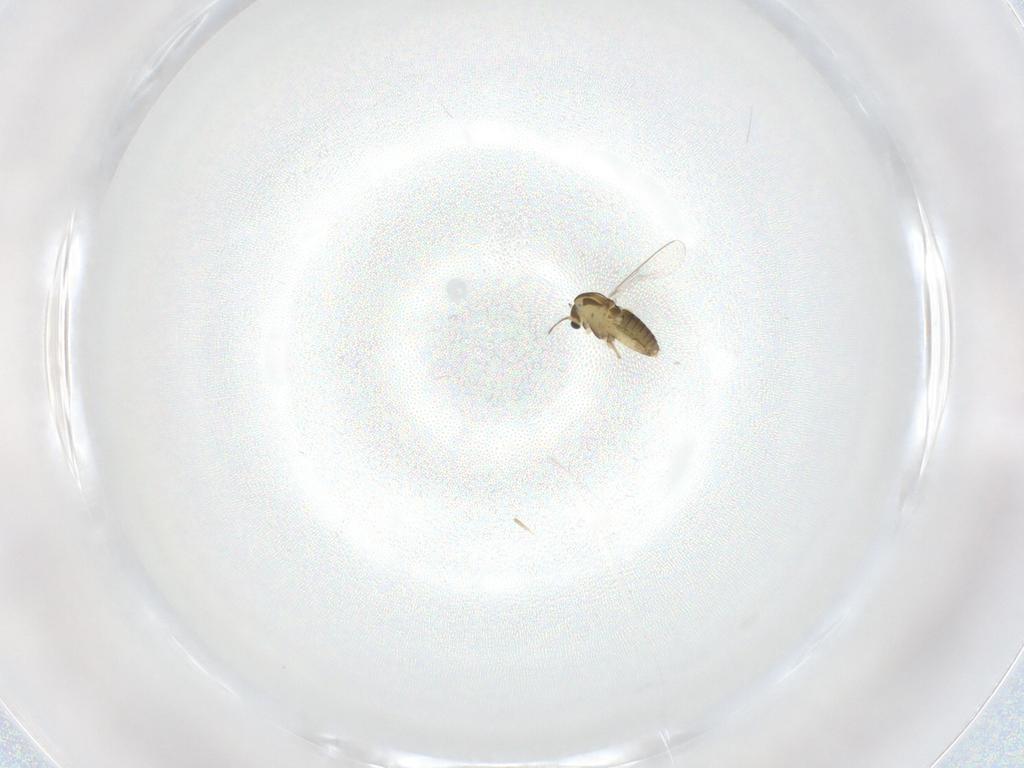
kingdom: Animalia
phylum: Arthropoda
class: Insecta
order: Diptera
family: Chironomidae
